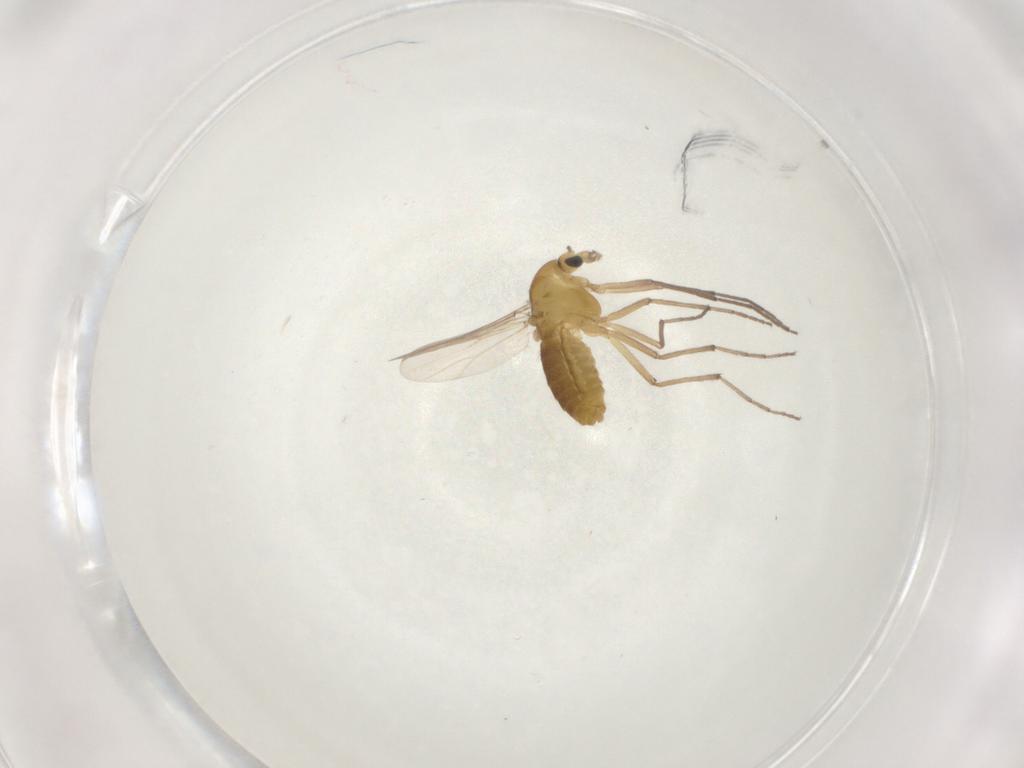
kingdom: Animalia
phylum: Arthropoda
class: Insecta
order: Diptera
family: Chironomidae
